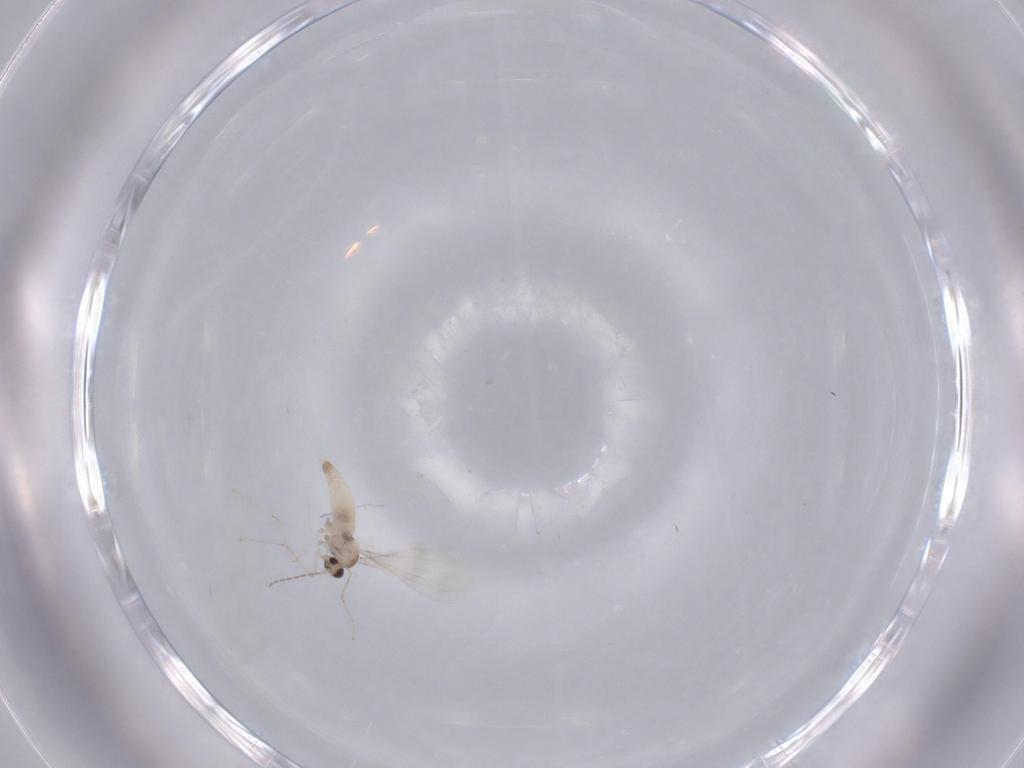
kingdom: Animalia
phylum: Arthropoda
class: Insecta
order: Diptera
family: Cecidomyiidae
